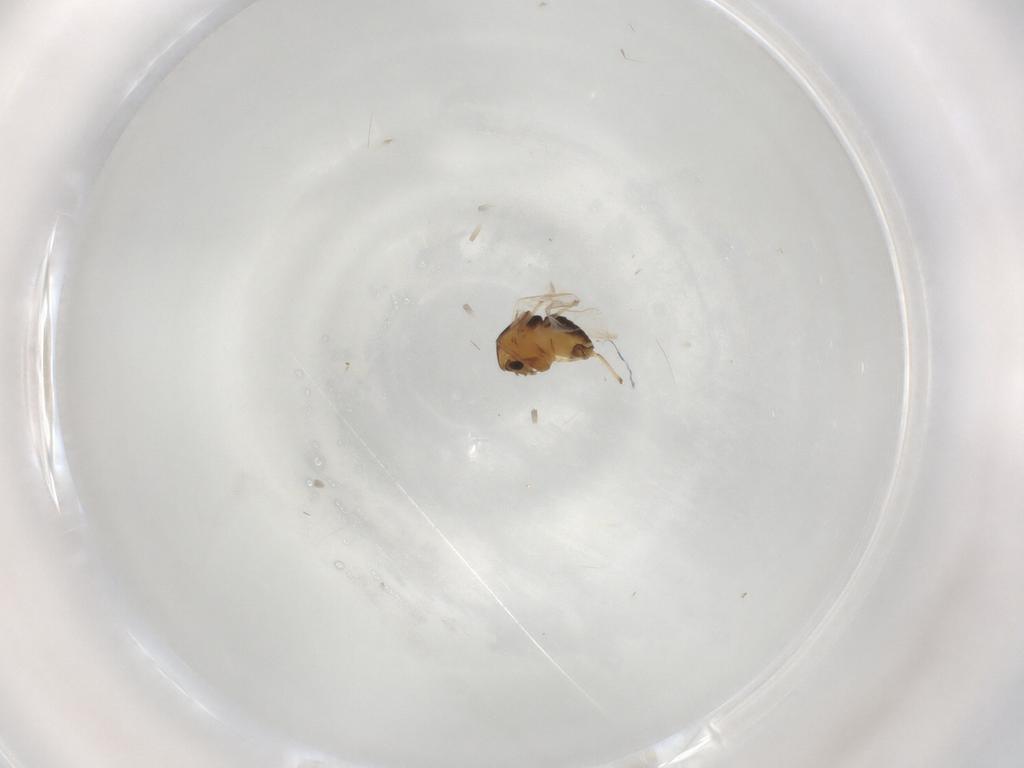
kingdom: Animalia
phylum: Arthropoda
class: Insecta
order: Diptera
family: Chironomidae
